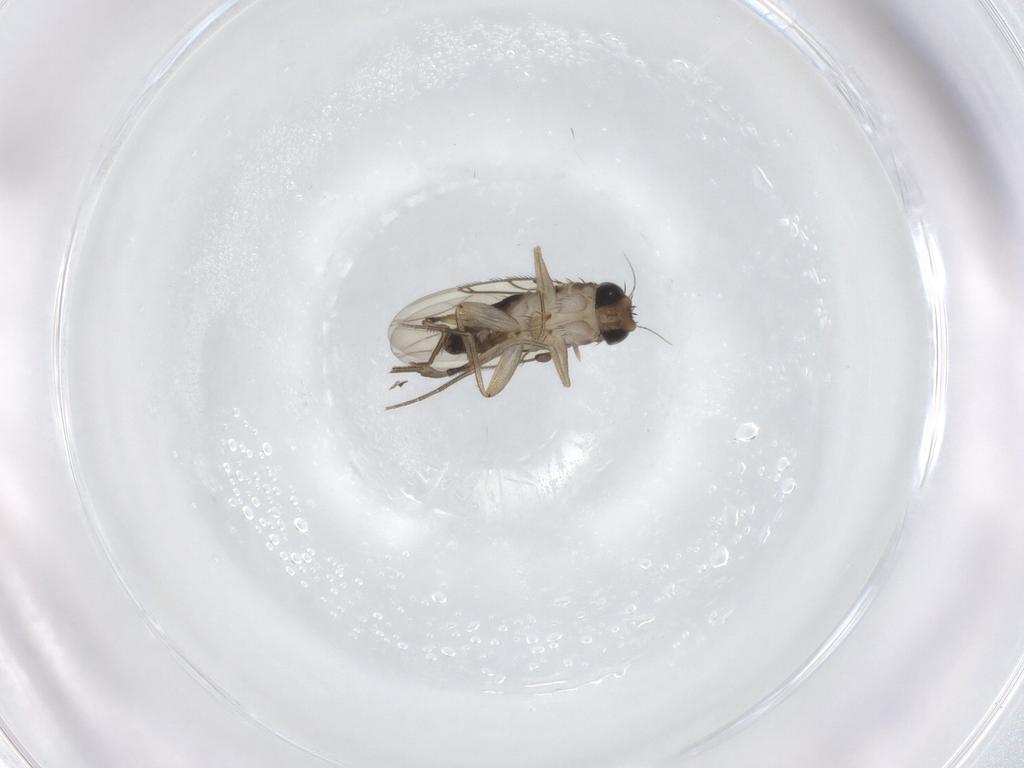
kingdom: Animalia
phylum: Arthropoda
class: Insecta
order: Diptera
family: Phoridae
